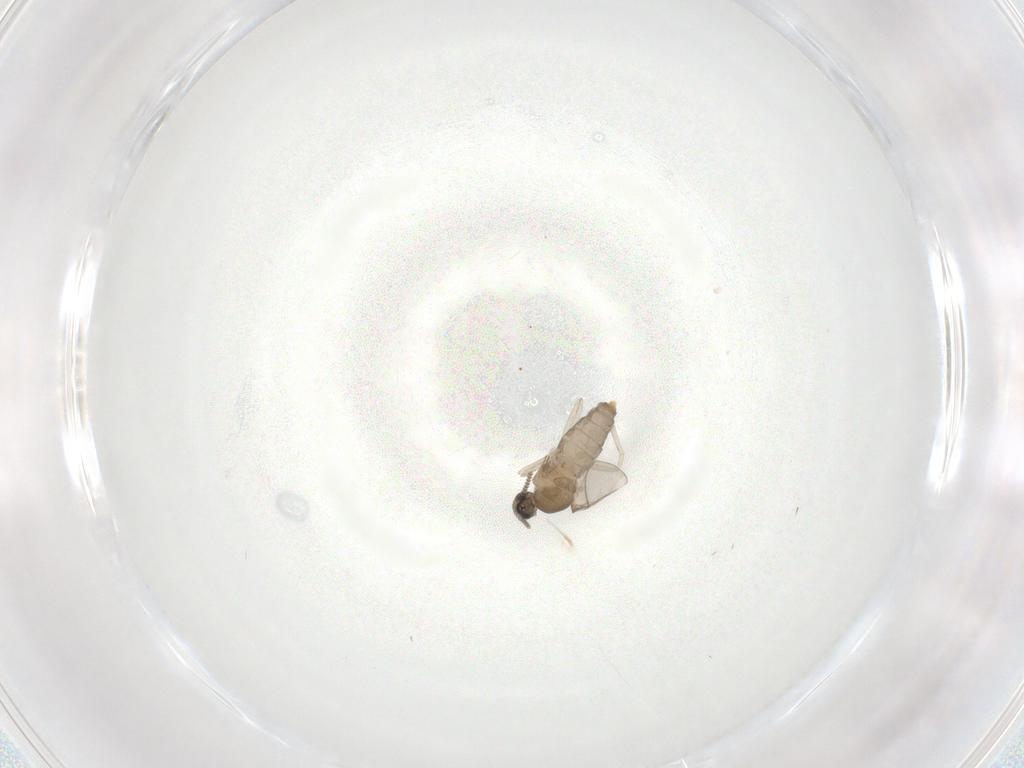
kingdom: Animalia
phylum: Arthropoda
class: Insecta
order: Diptera
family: Cecidomyiidae
